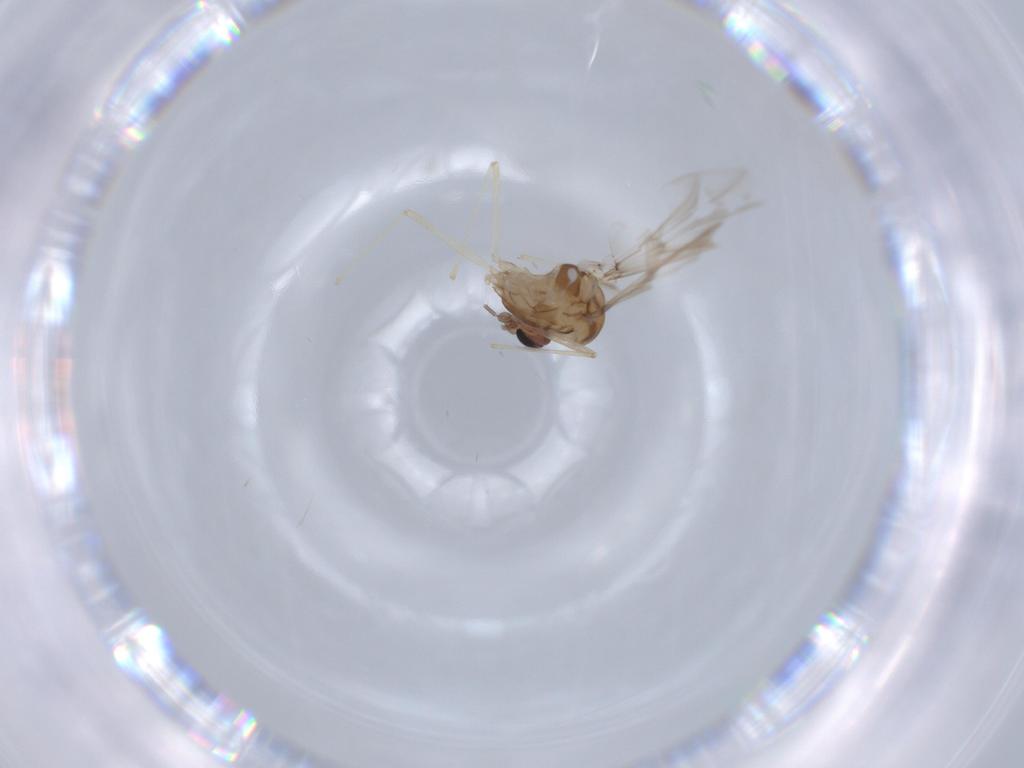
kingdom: Animalia
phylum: Arthropoda
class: Insecta
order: Diptera
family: Chironomidae
